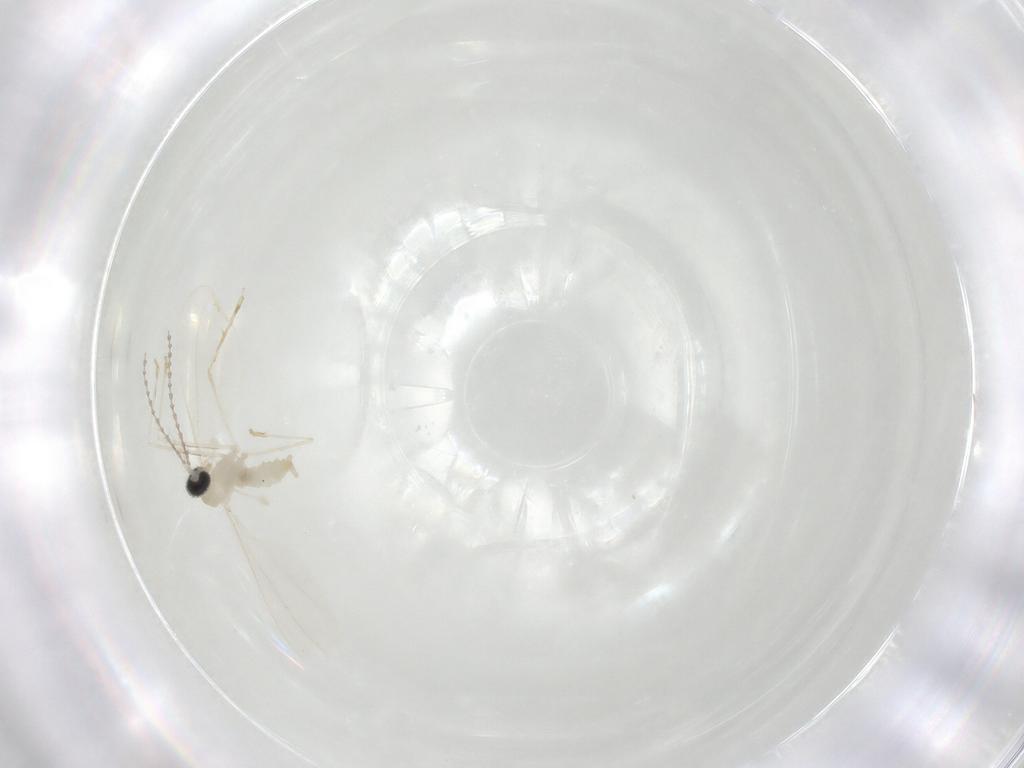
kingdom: Animalia
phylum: Arthropoda
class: Insecta
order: Diptera
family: Cecidomyiidae
